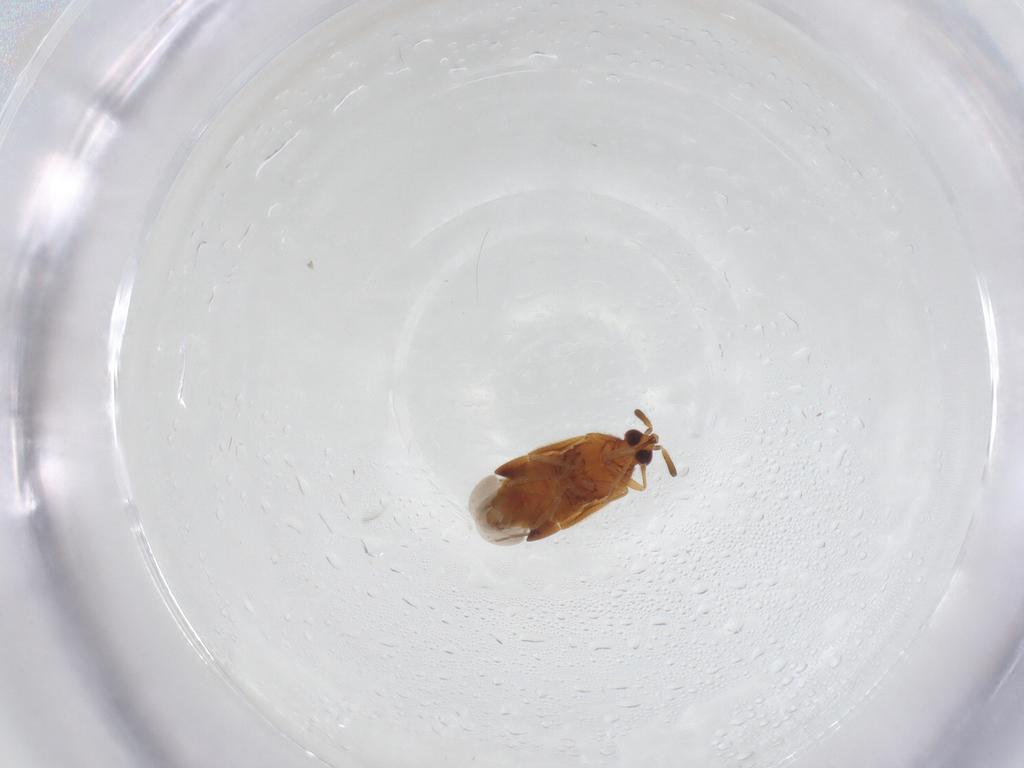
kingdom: Animalia
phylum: Arthropoda
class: Insecta
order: Hemiptera
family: Anthocoridae
